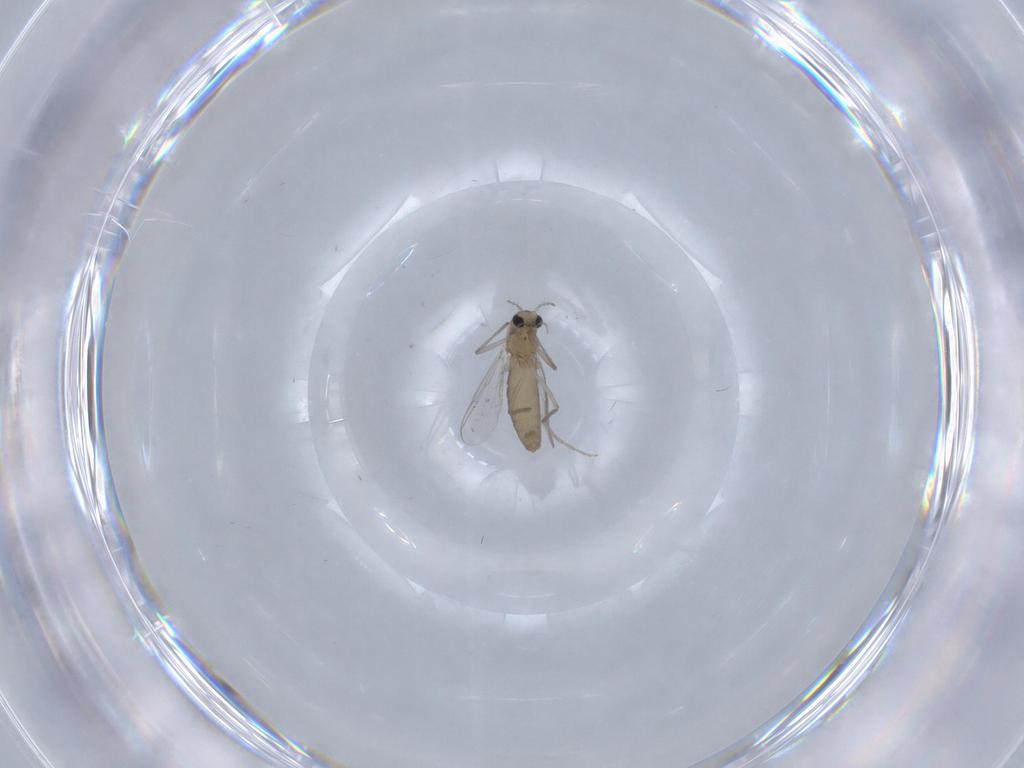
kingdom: Animalia
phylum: Arthropoda
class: Insecta
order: Diptera
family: Chironomidae
